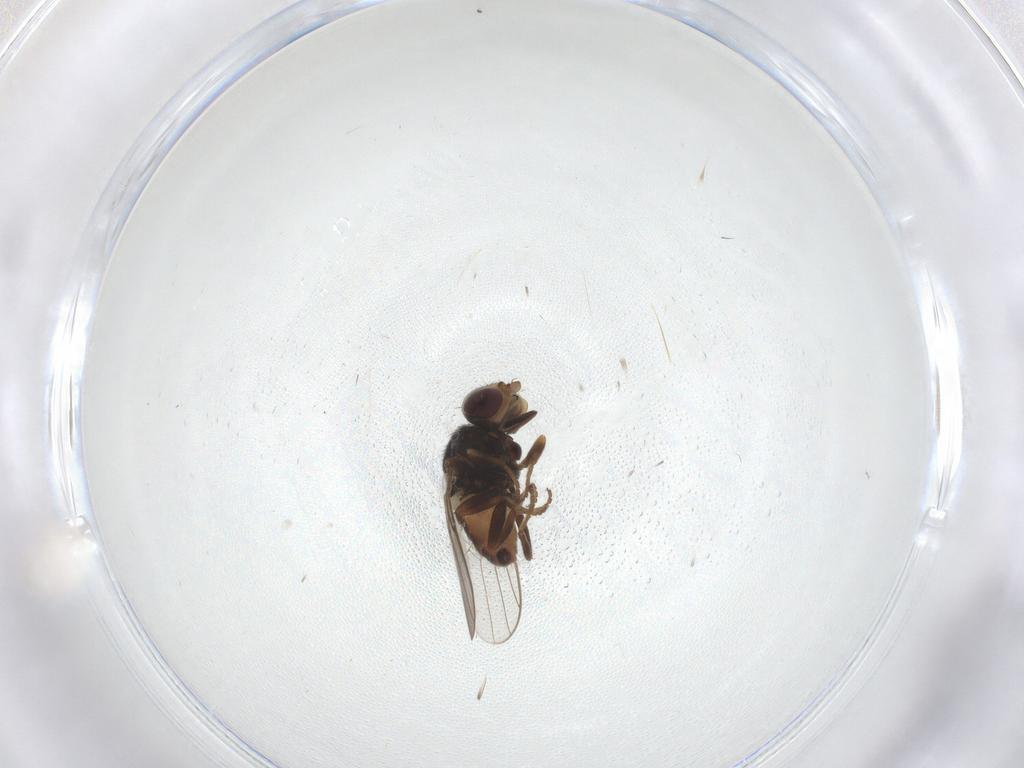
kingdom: Animalia
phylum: Arthropoda
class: Insecta
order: Diptera
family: Chloropidae
